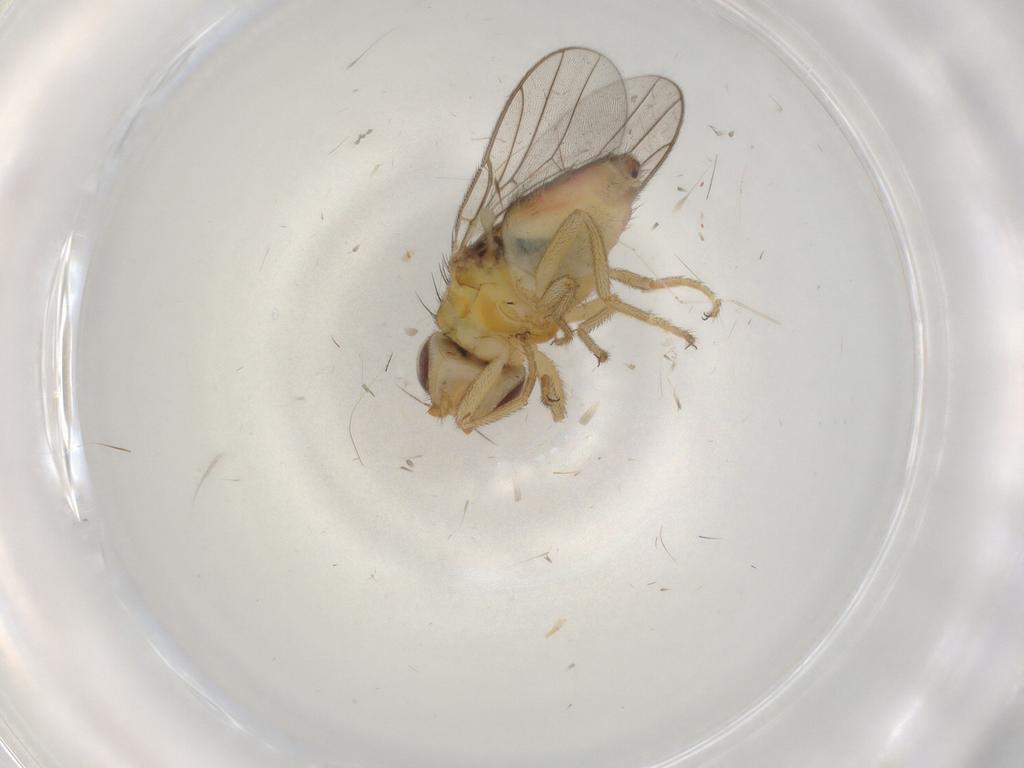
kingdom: Animalia
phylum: Arthropoda
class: Insecta
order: Diptera
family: Chloropidae
